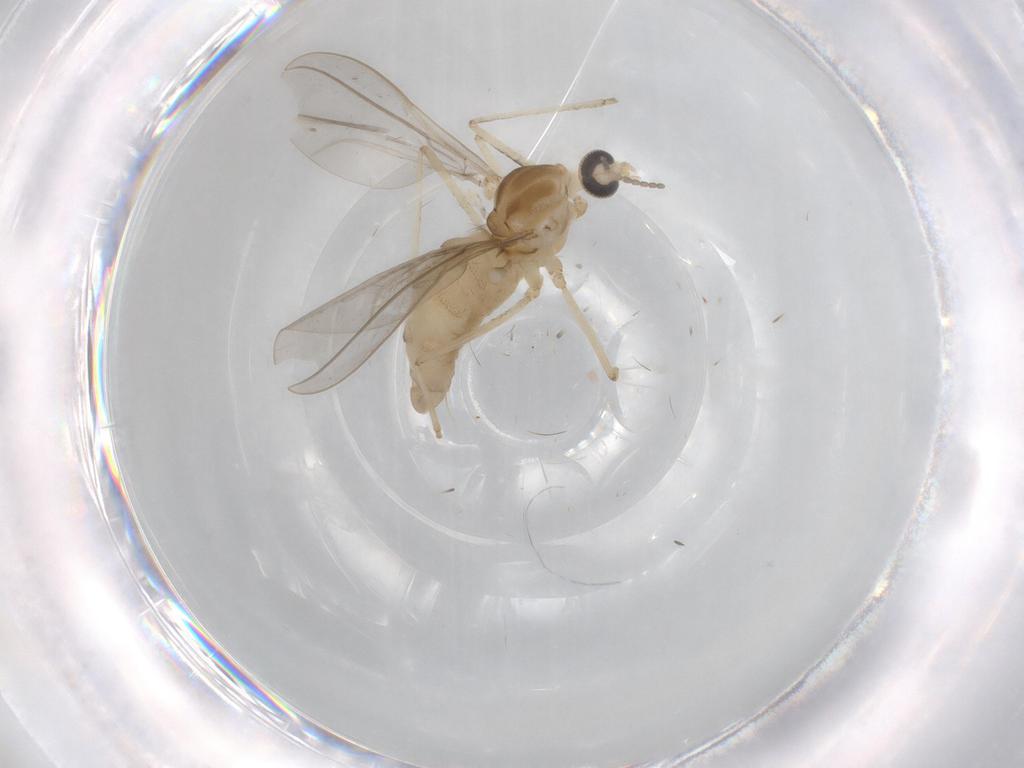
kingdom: Animalia
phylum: Arthropoda
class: Insecta
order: Diptera
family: Cecidomyiidae
